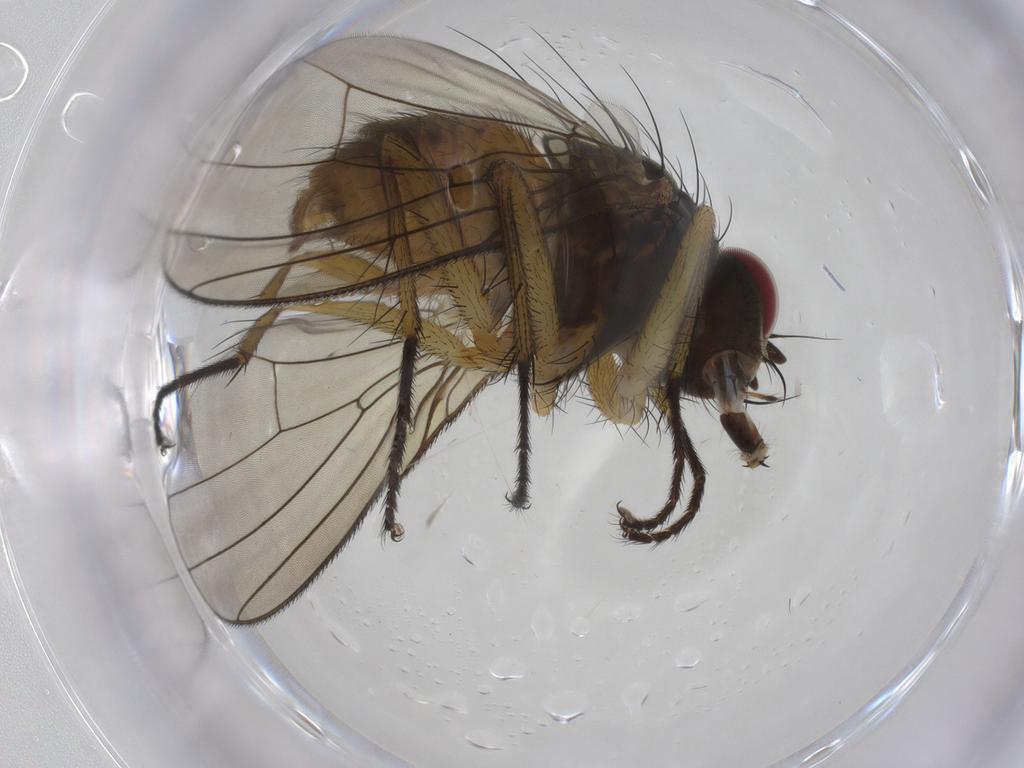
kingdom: Animalia
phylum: Arthropoda
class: Insecta
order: Diptera
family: Muscidae
